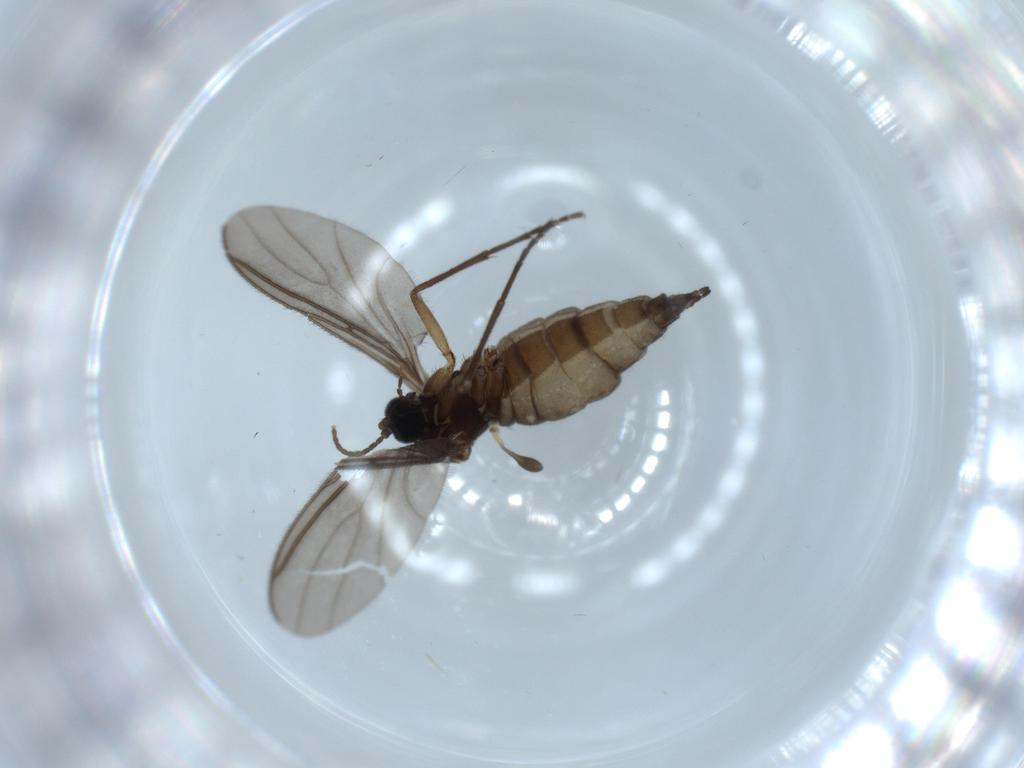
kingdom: Animalia
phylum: Arthropoda
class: Insecta
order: Diptera
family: Sciaridae
